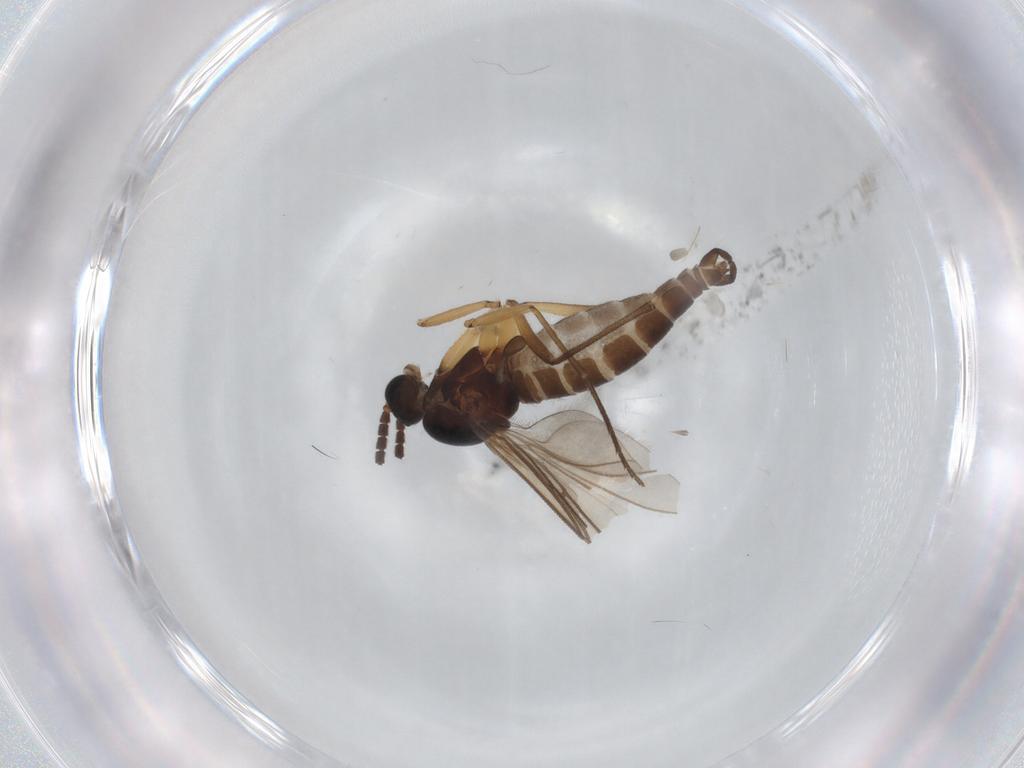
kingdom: Animalia
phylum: Arthropoda
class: Insecta
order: Diptera
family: Sciaridae
